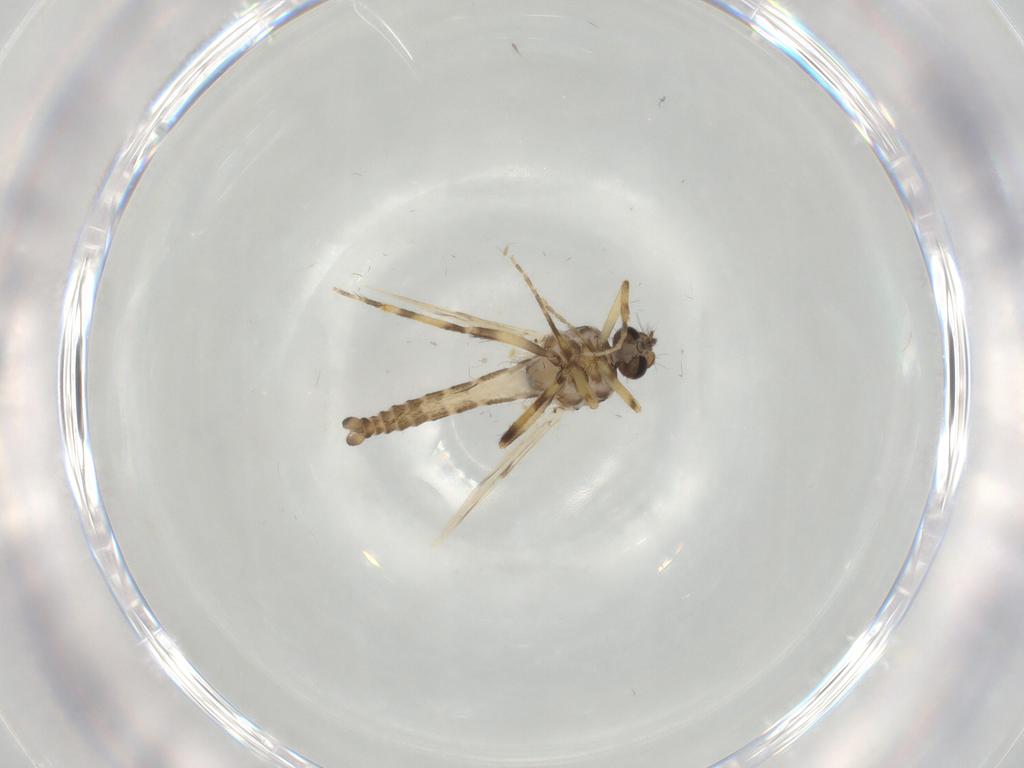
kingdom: Animalia
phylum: Arthropoda
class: Insecta
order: Diptera
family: Ceratopogonidae
